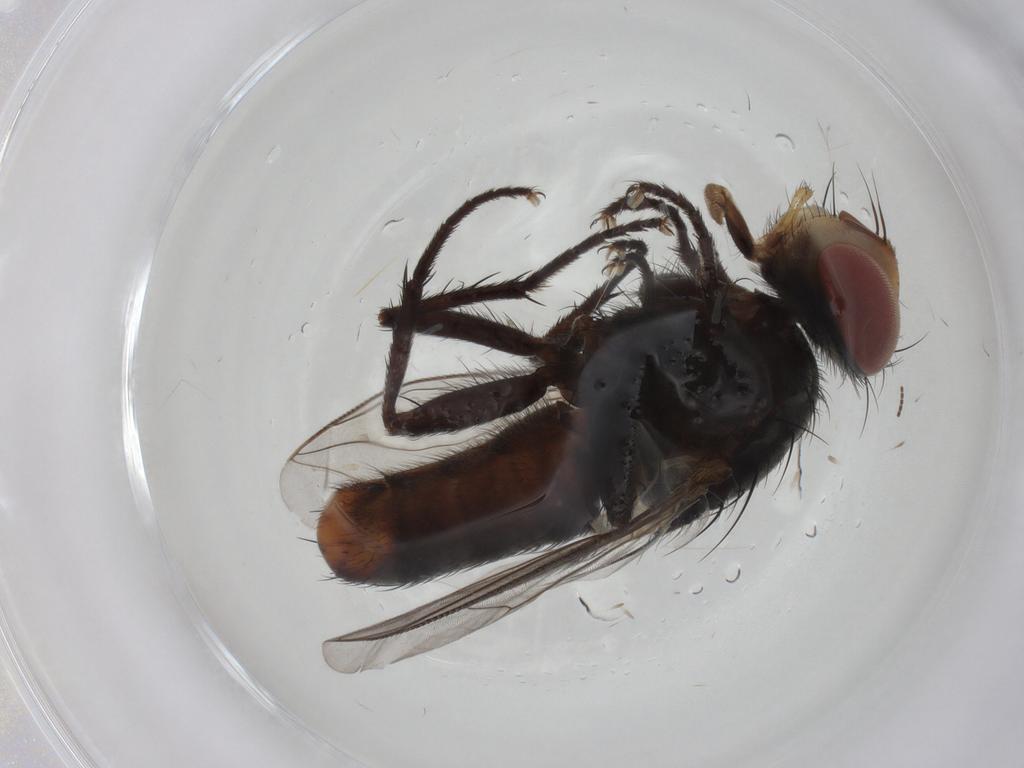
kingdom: Animalia
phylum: Arthropoda
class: Insecta
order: Diptera
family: Sarcophagidae
